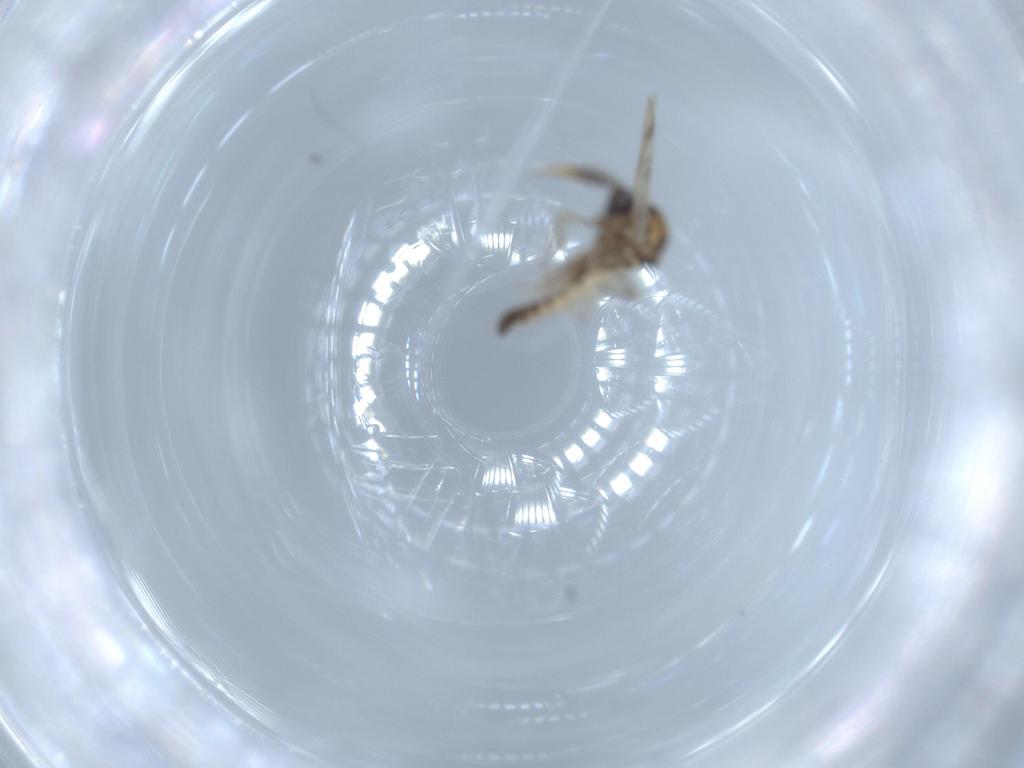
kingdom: Animalia
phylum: Arthropoda
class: Insecta
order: Diptera
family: Ceratopogonidae
